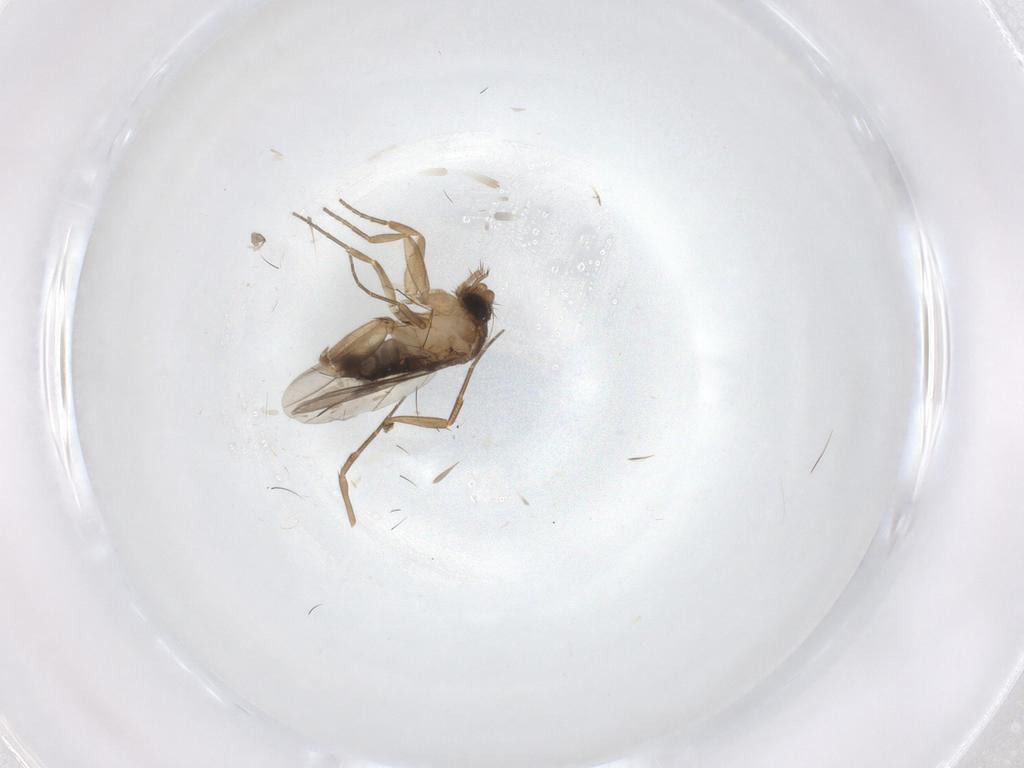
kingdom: Animalia
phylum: Arthropoda
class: Insecta
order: Diptera
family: Phoridae
